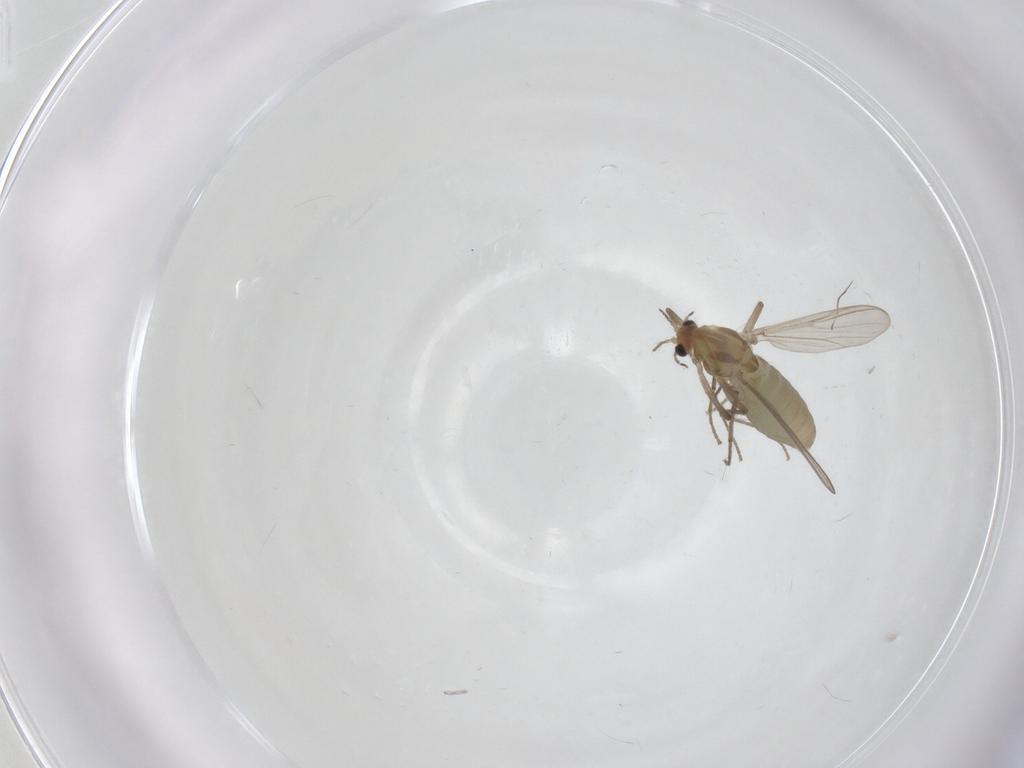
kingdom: Animalia
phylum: Arthropoda
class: Insecta
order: Diptera
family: Chironomidae
